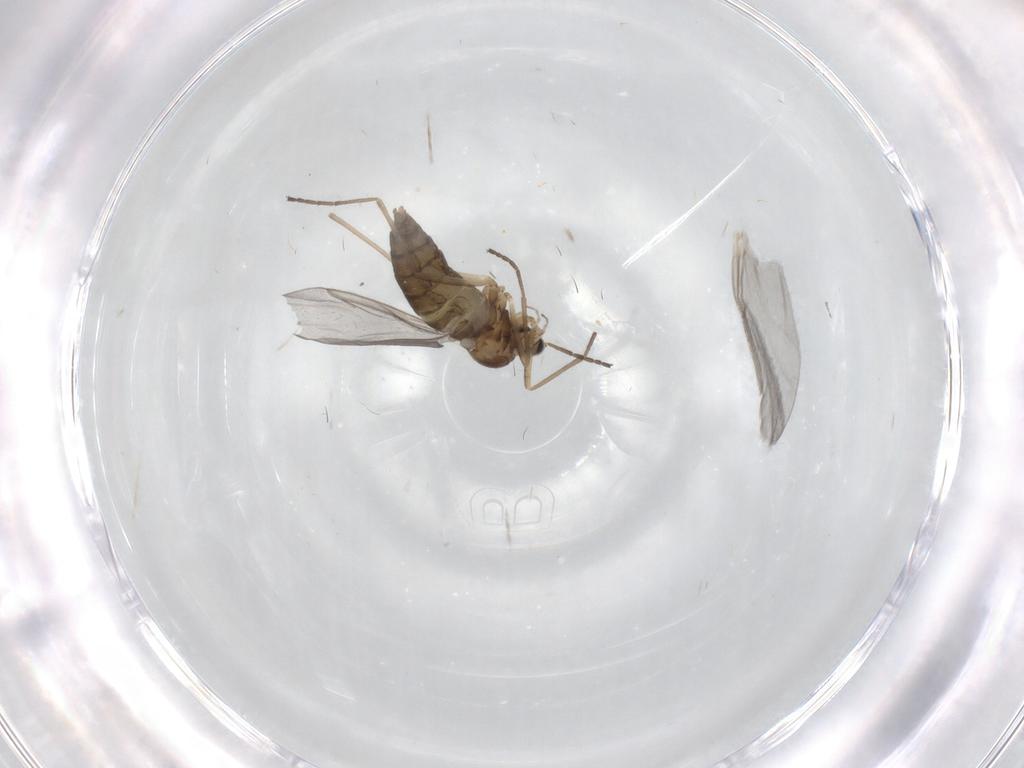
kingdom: Animalia
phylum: Arthropoda
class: Insecta
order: Diptera
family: Cecidomyiidae
